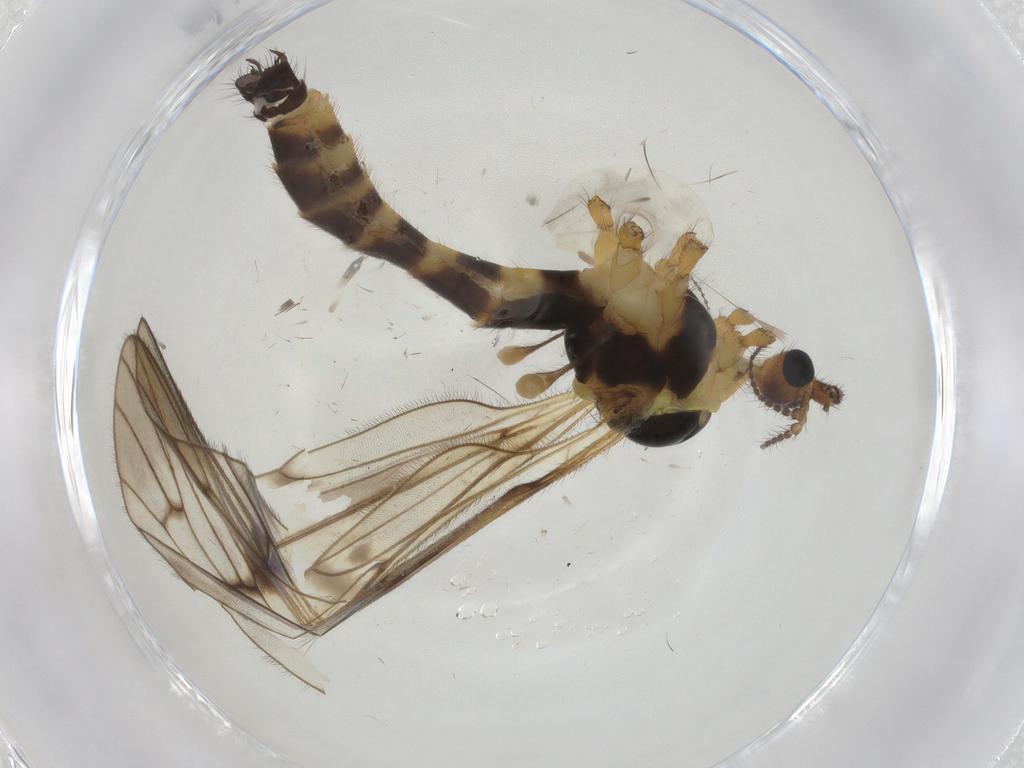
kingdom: Animalia
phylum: Arthropoda
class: Insecta
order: Diptera
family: Limoniidae
